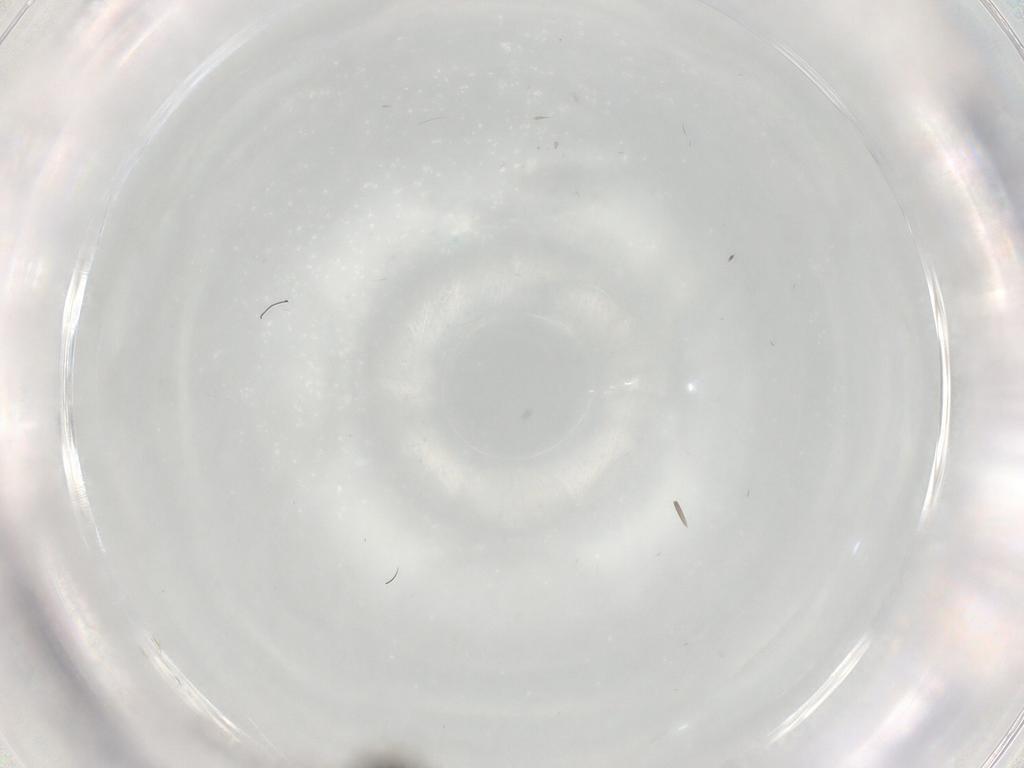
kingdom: Animalia
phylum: Arthropoda
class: Insecta
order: Hymenoptera
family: Figitidae
